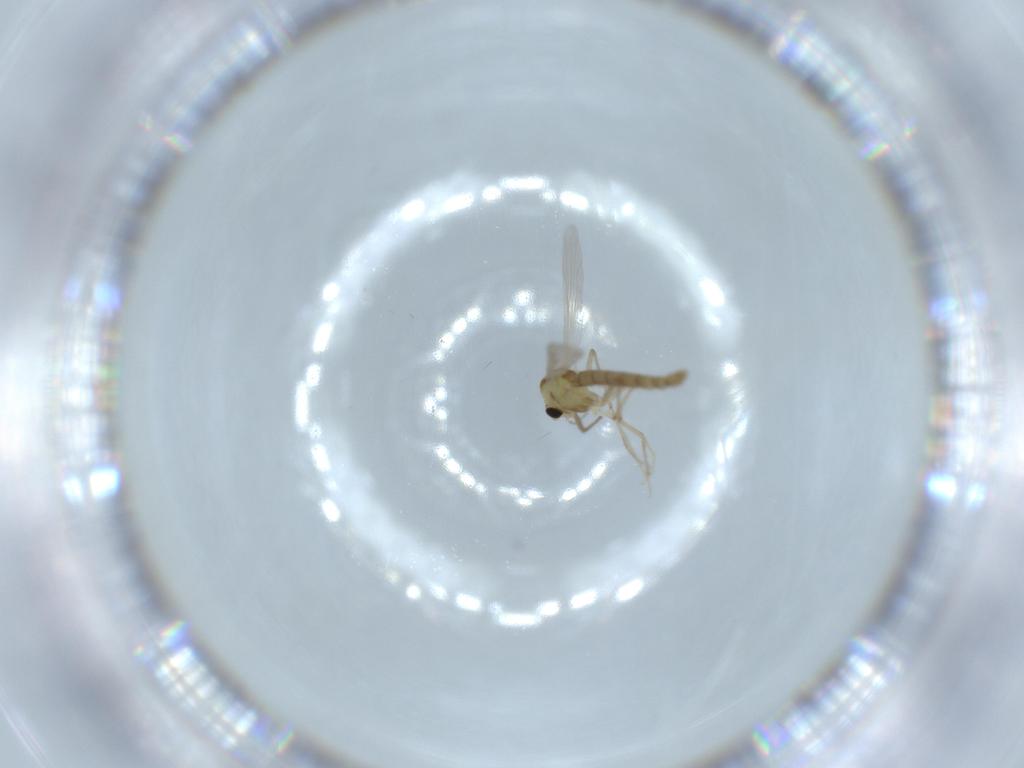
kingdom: Animalia
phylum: Arthropoda
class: Insecta
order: Diptera
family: Chironomidae
